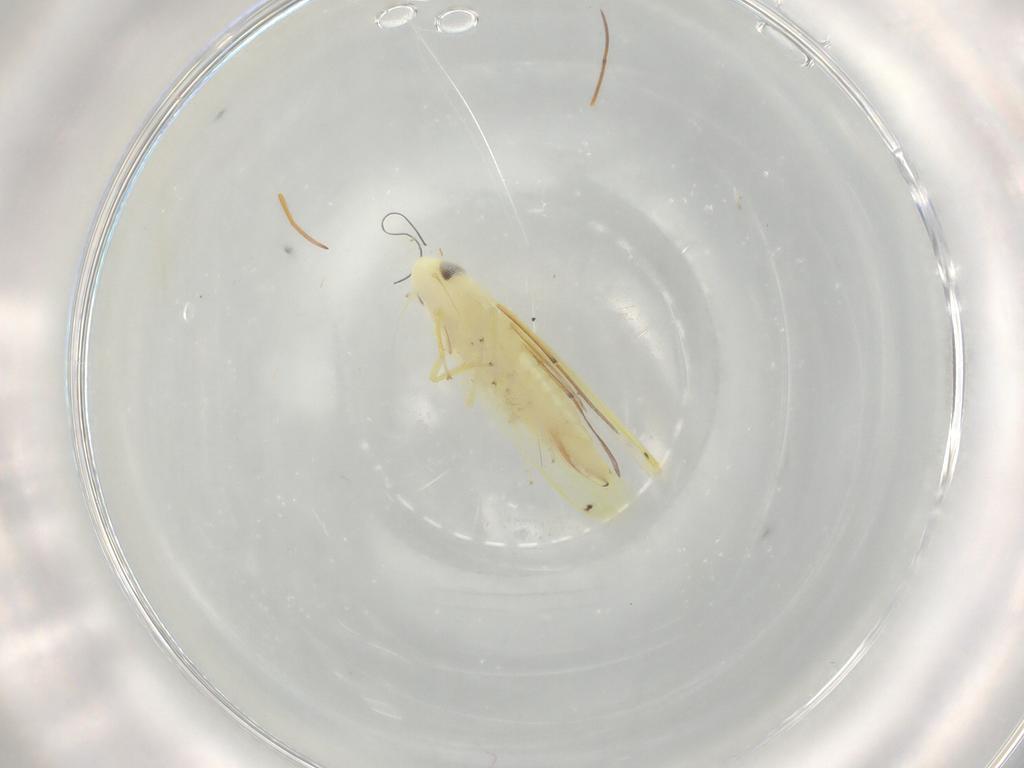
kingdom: Animalia
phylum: Arthropoda
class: Insecta
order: Hemiptera
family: Cicadellidae
